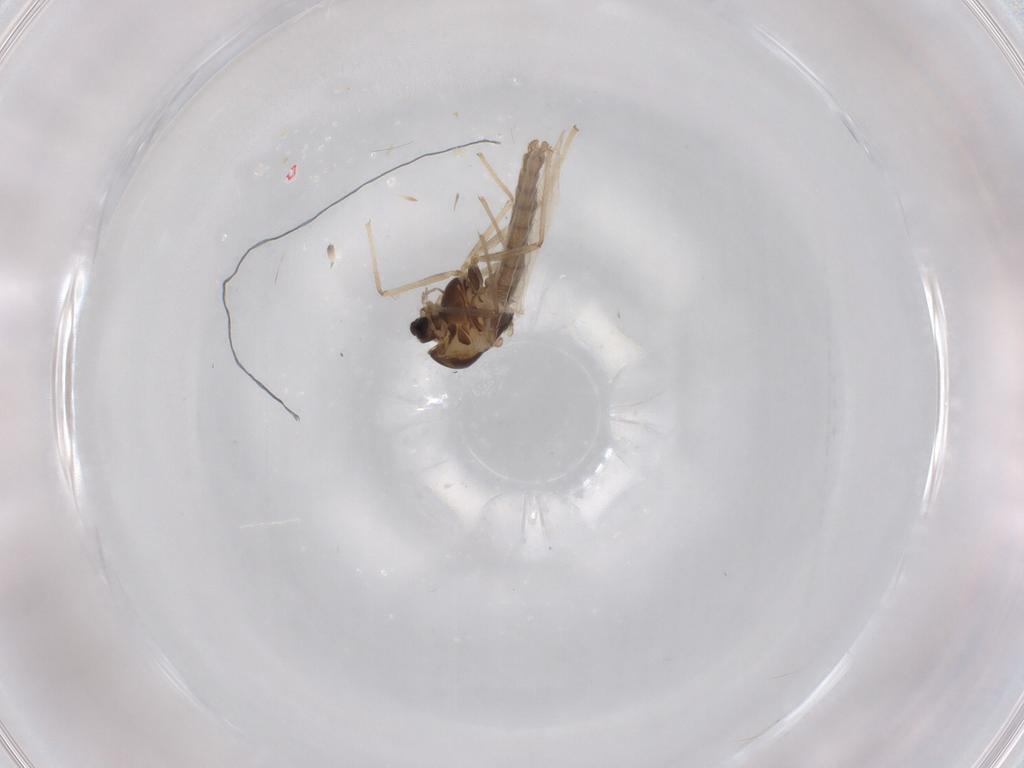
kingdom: Animalia
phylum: Arthropoda
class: Insecta
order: Diptera
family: Chironomidae
